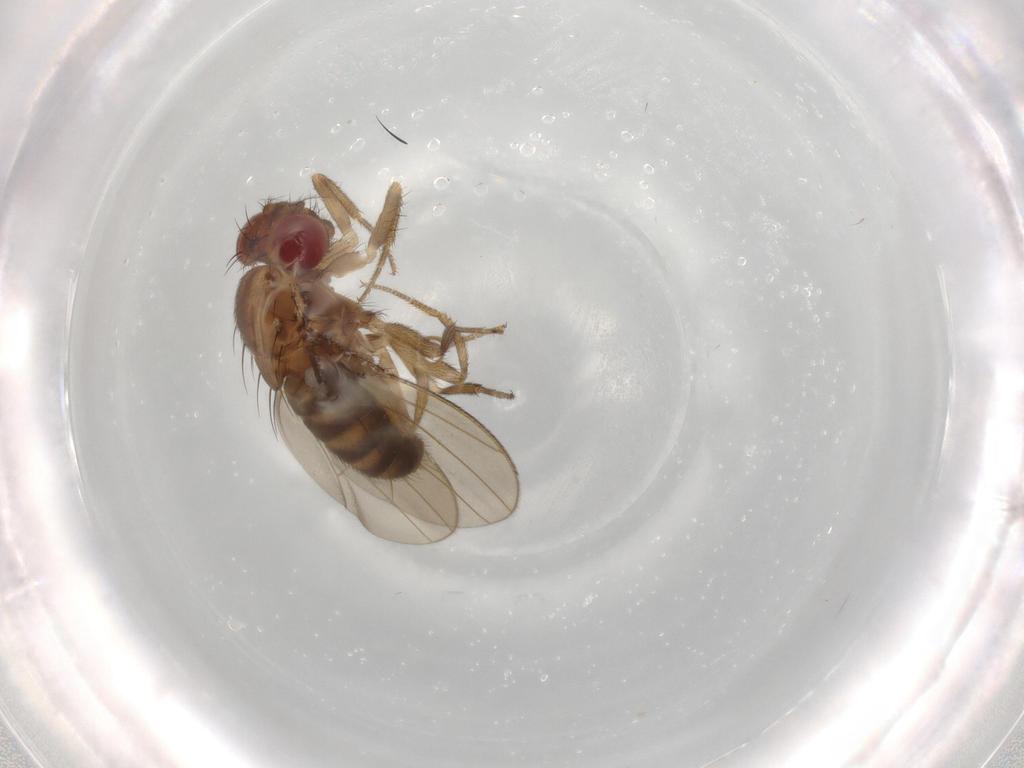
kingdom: Animalia
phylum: Arthropoda
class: Insecta
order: Diptera
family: Drosophilidae
